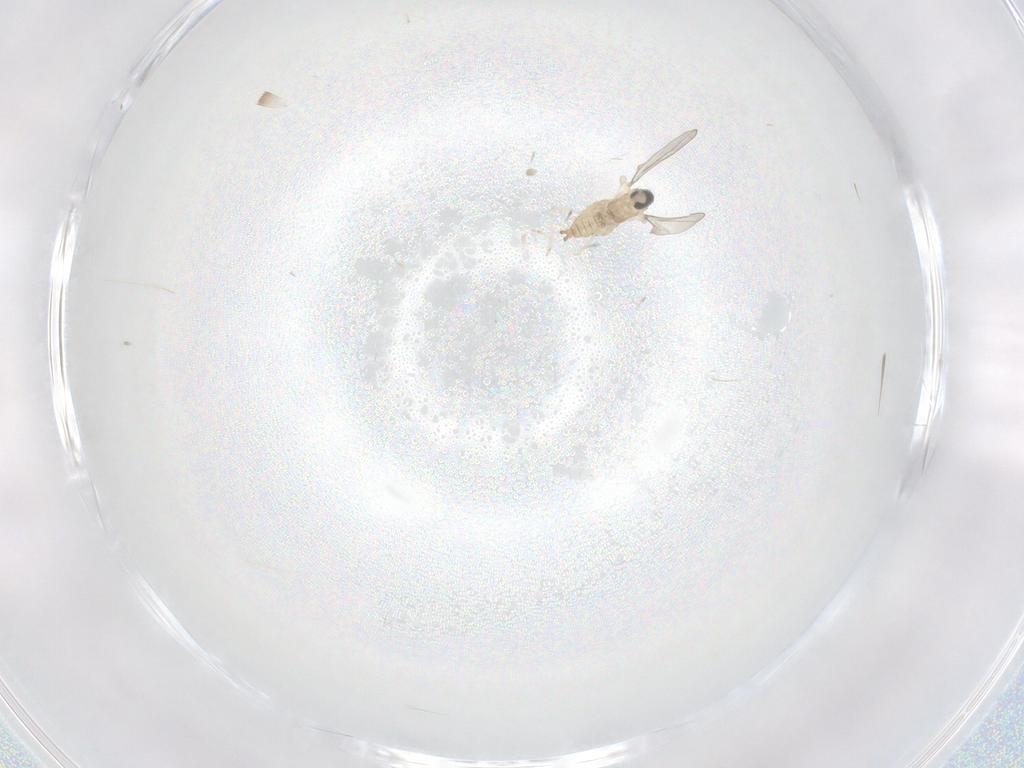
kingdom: Animalia
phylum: Arthropoda
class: Insecta
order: Diptera
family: Cecidomyiidae
